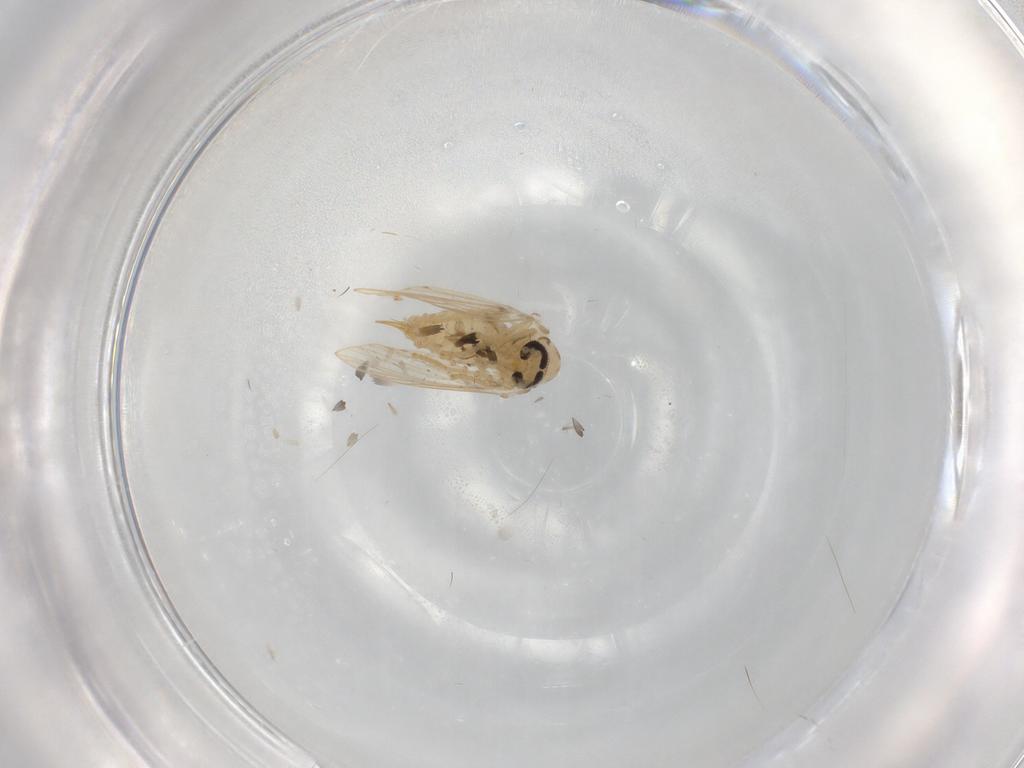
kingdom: Animalia
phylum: Arthropoda
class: Insecta
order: Diptera
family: Psychodidae
